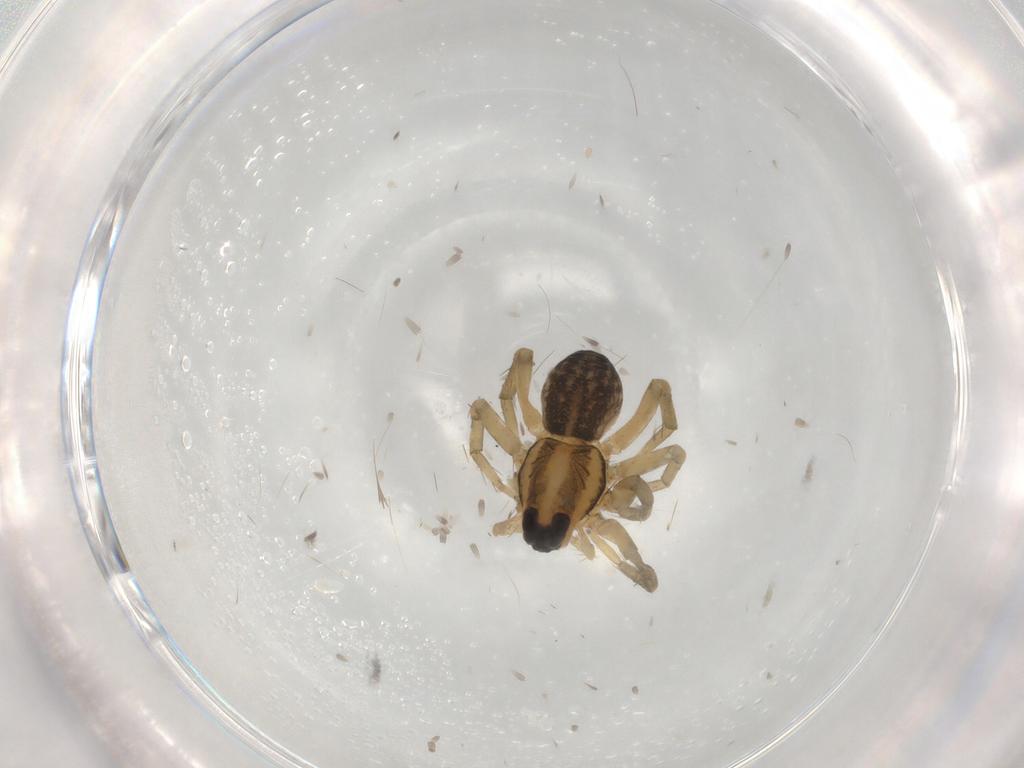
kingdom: Animalia
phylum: Arthropoda
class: Arachnida
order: Araneae
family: Lycosidae
